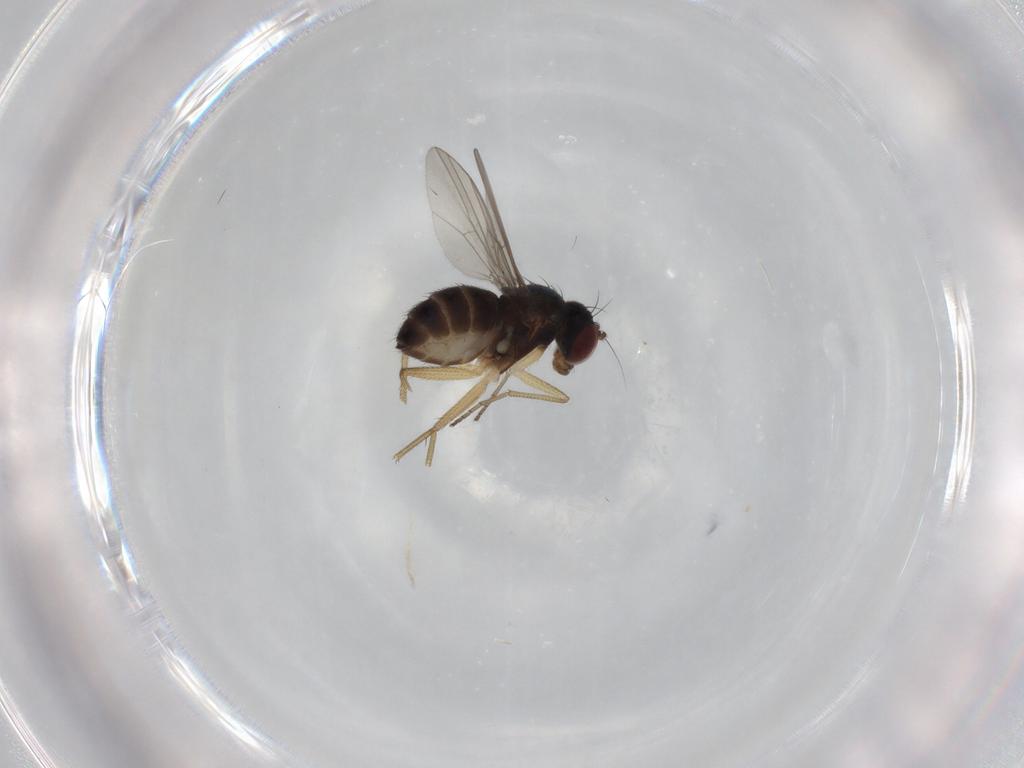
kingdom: Animalia
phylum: Arthropoda
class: Insecta
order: Diptera
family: Dolichopodidae
